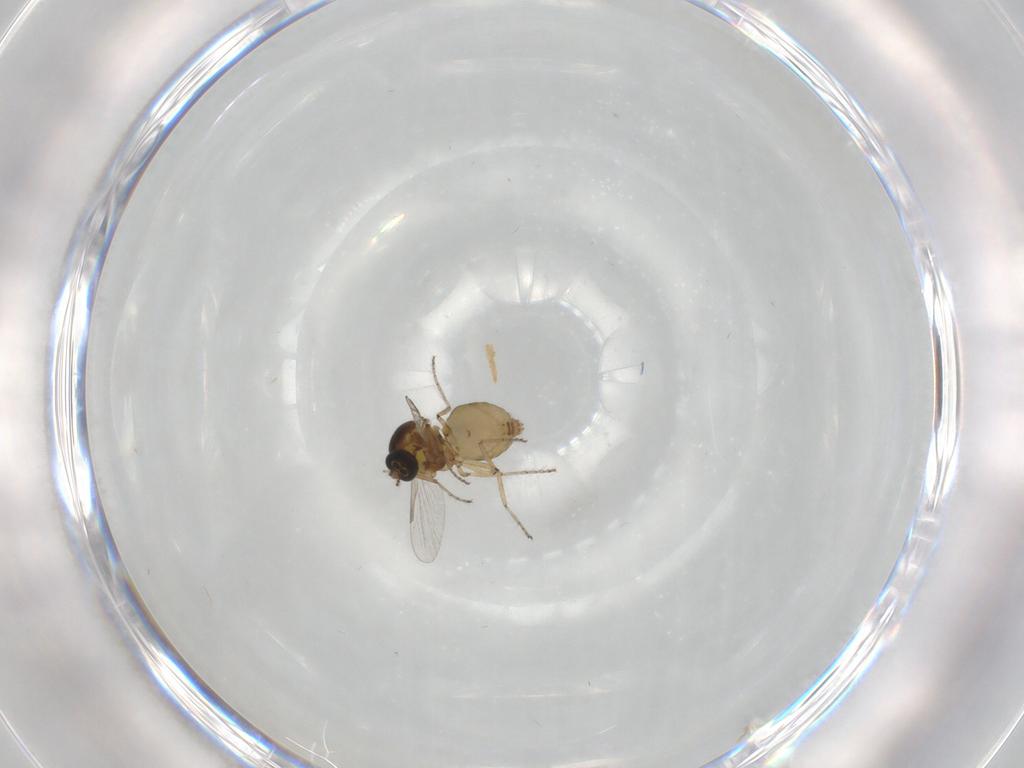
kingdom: Animalia
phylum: Arthropoda
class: Insecta
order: Diptera
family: Ceratopogonidae
